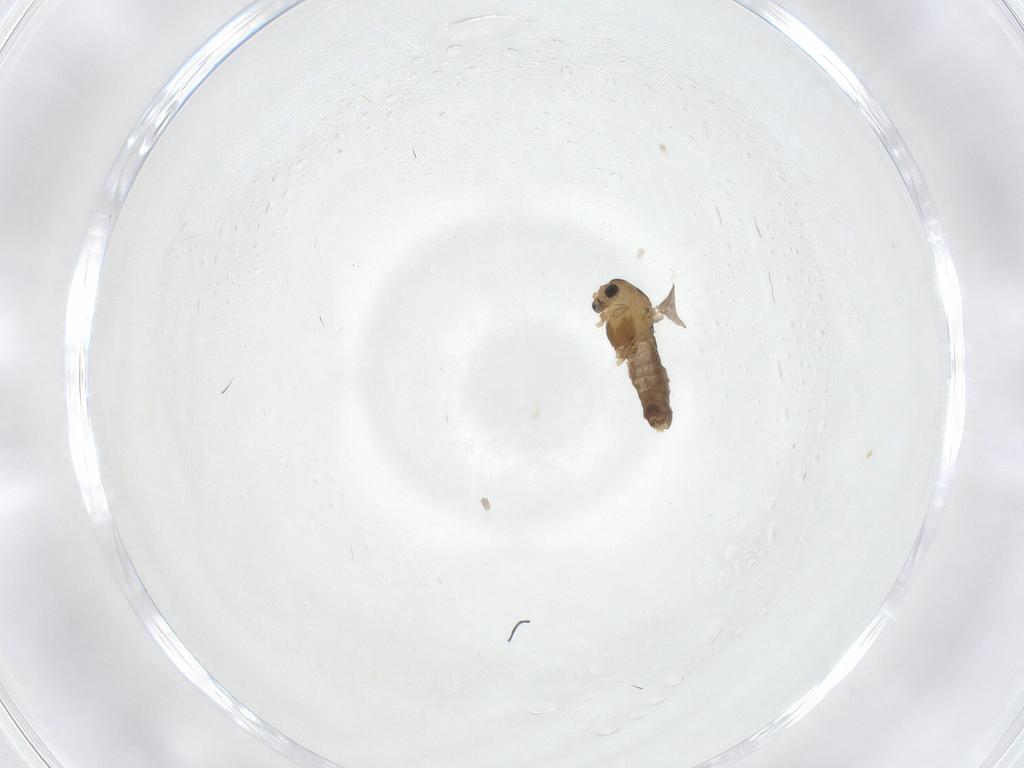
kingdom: Animalia
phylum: Arthropoda
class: Insecta
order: Diptera
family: Chironomidae
